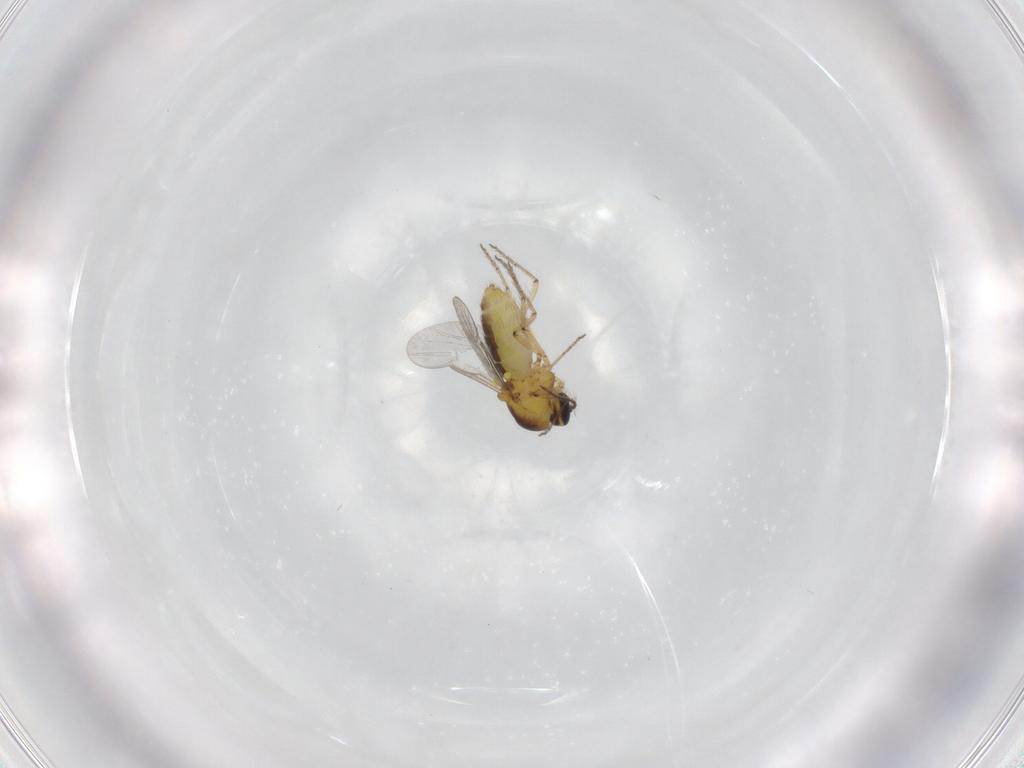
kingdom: Animalia
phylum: Arthropoda
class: Insecta
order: Diptera
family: Ceratopogonidae
